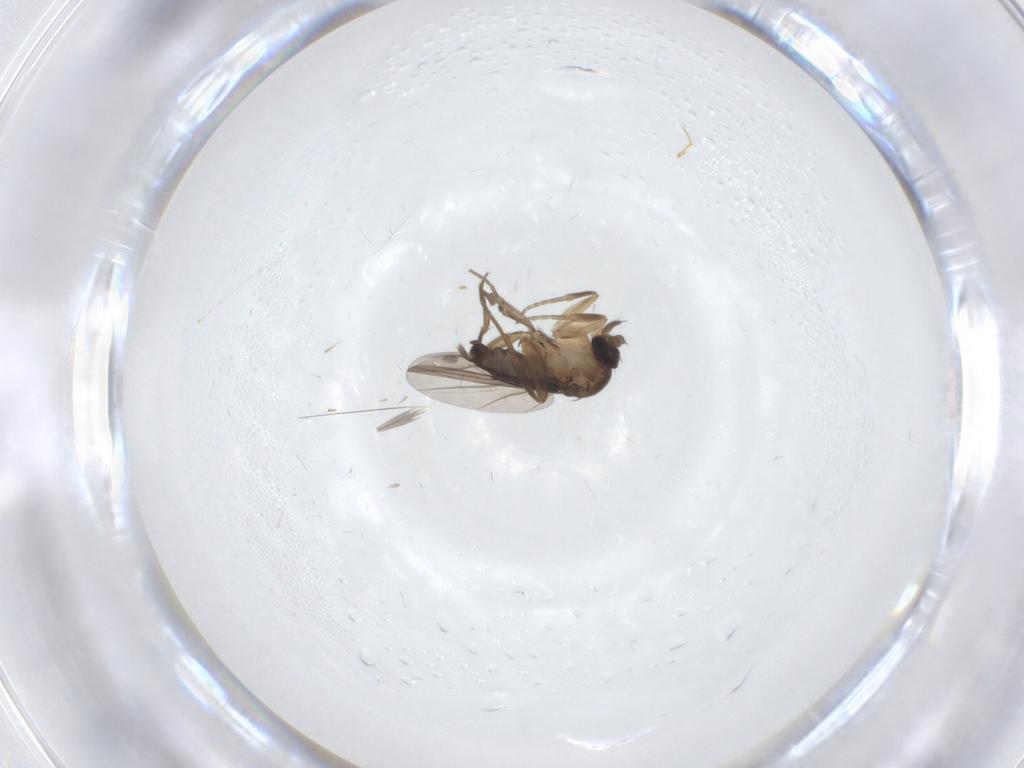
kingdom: Animalia
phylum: Arthropoda
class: Insecta
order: Diptera
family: Phoridae
